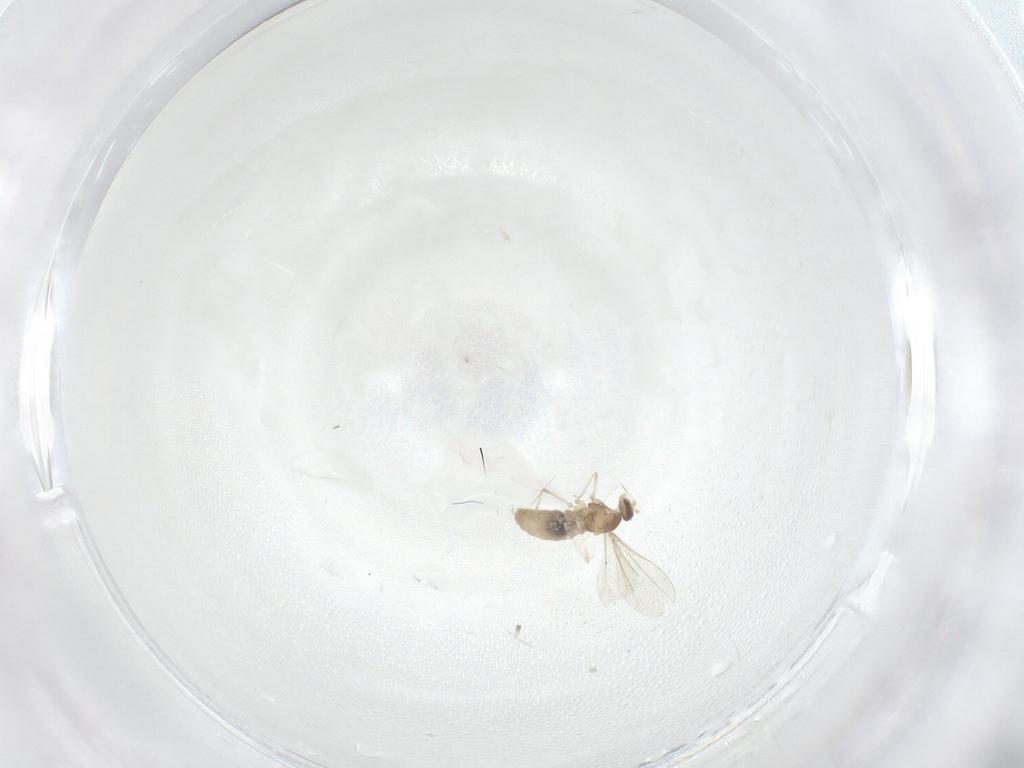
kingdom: Animalia
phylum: Arthropoda
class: Insecta
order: Diptera
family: Cecidomyiidae
